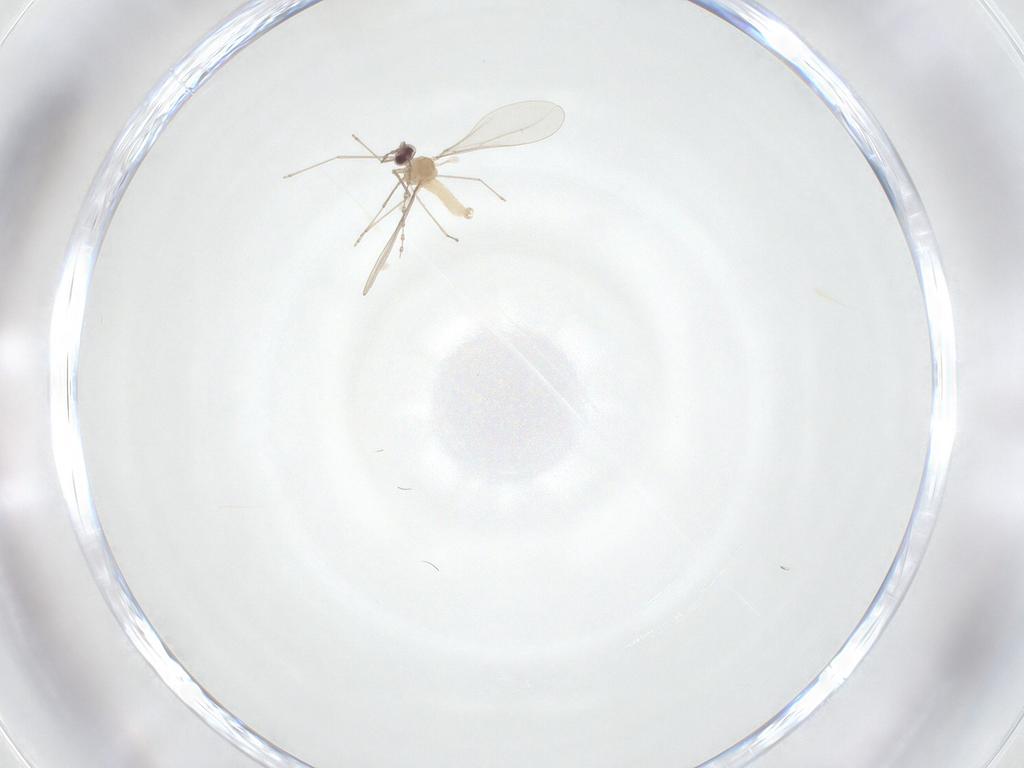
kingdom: Animalia
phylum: Arthropoda
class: Insecta
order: Diptera
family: Cecidomyiidae
